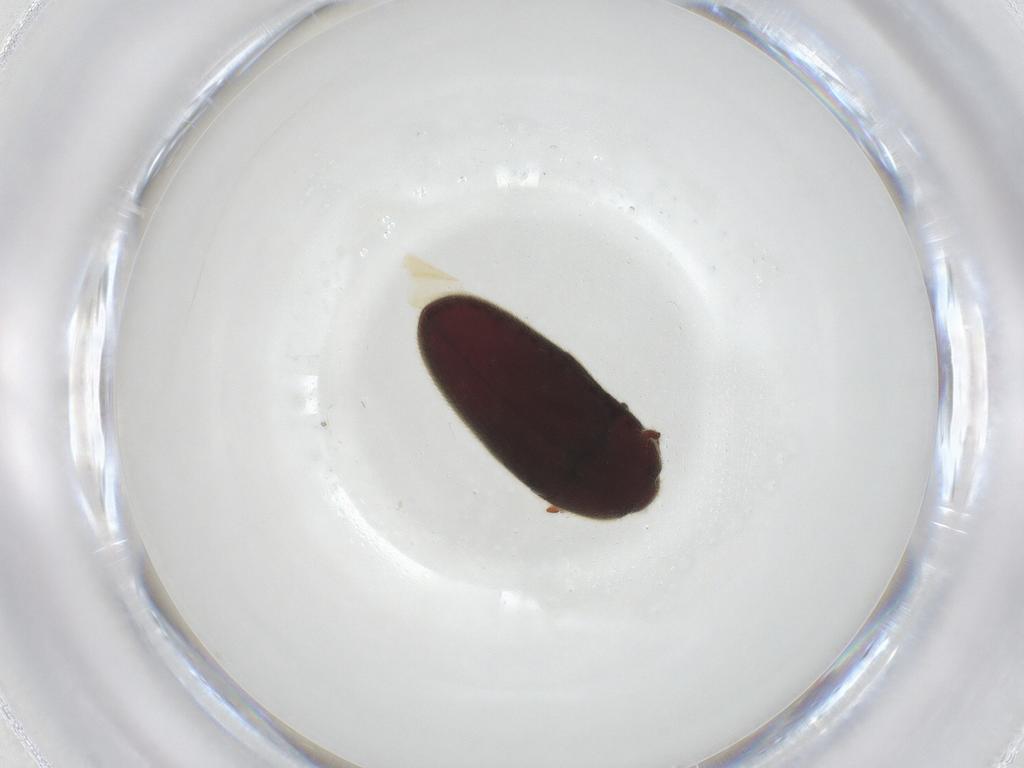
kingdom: Animalia
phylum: Arthropoda
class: Insecta
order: Coleoptera
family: Throscidae
